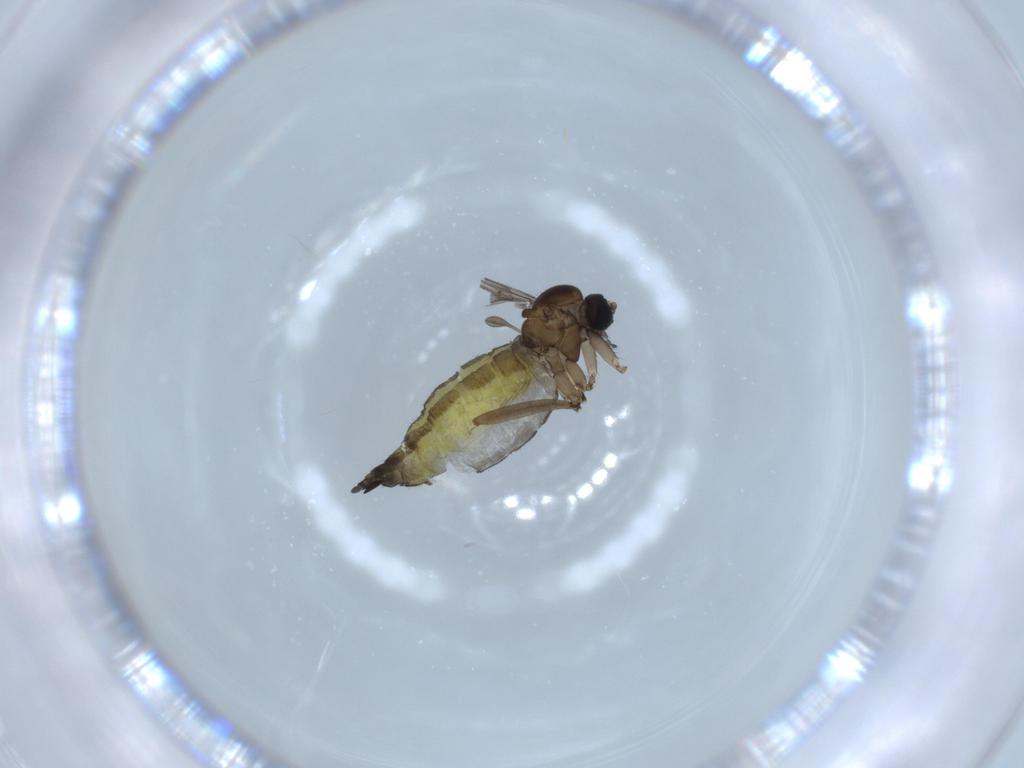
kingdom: Animalia
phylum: Arthropoda
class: Insecta
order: Diptera
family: Sciaridae
